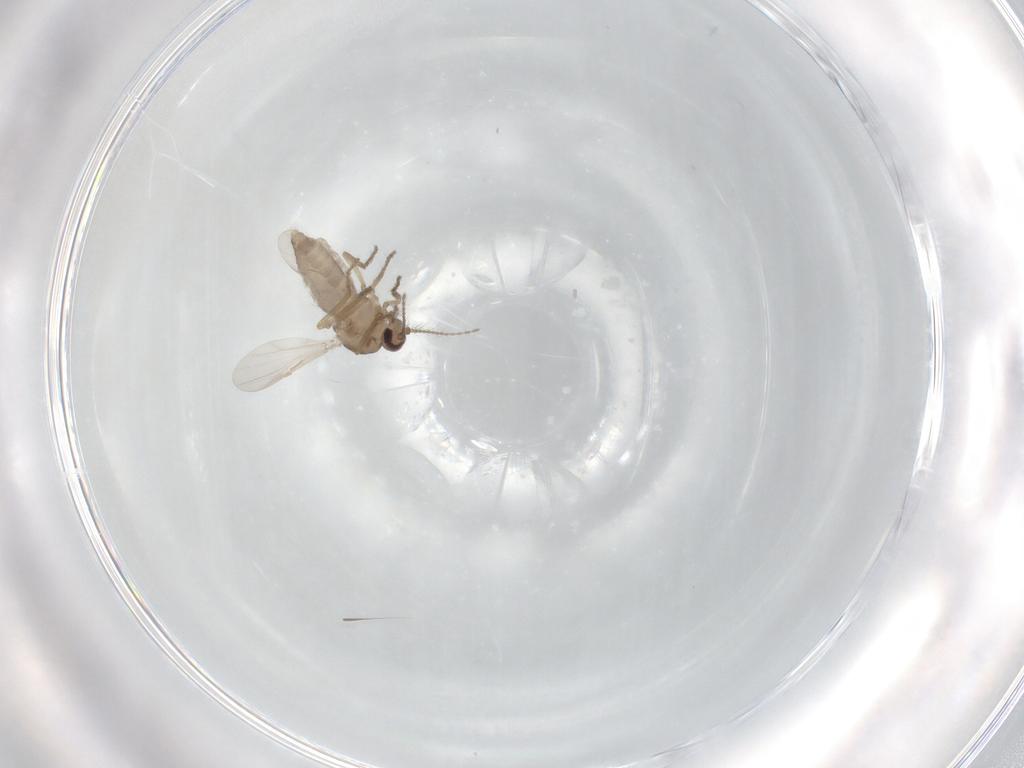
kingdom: Animalia
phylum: Arthropoda
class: Insecta
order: Diptera
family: Ceratopogonidae
